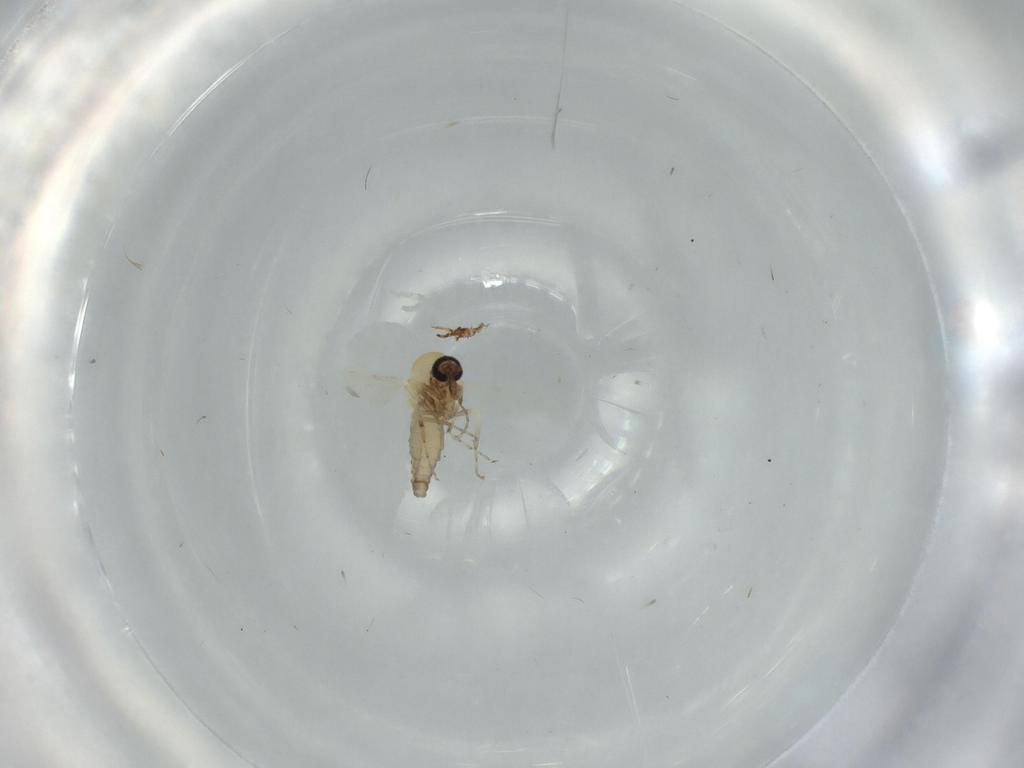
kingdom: Animalia
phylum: Arthropoda
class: Insecta
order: Diptera
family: Ceratopogonidae
